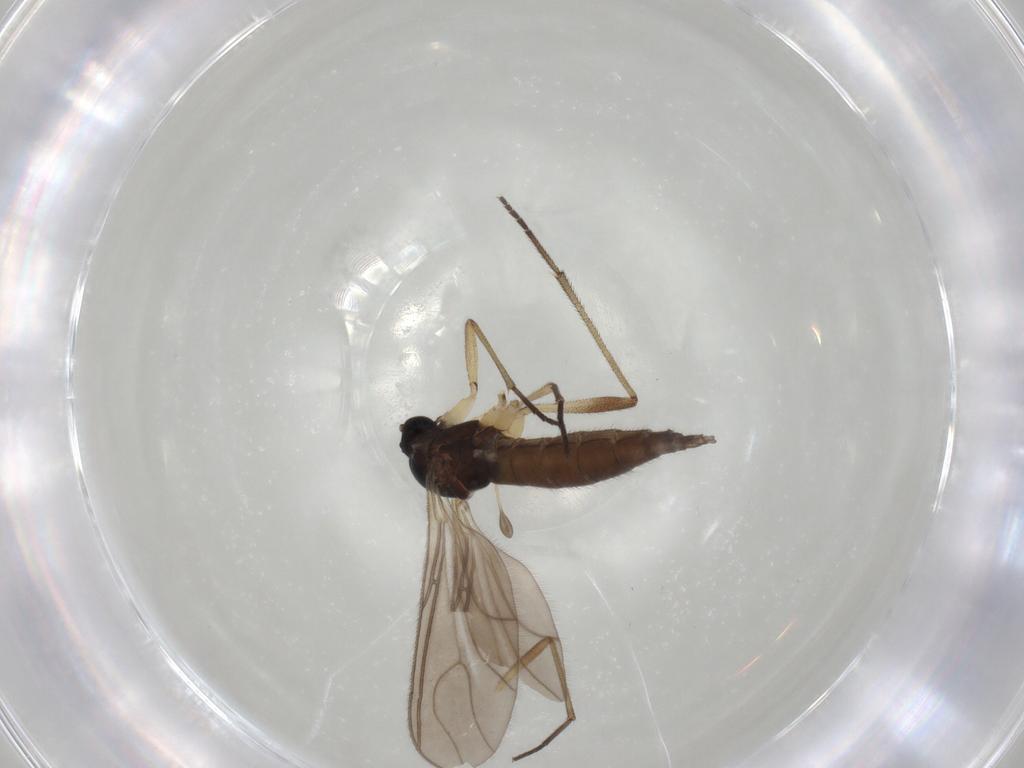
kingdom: Animalia
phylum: Arthropoda
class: Insecta
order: Diptera
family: Sciaridae
